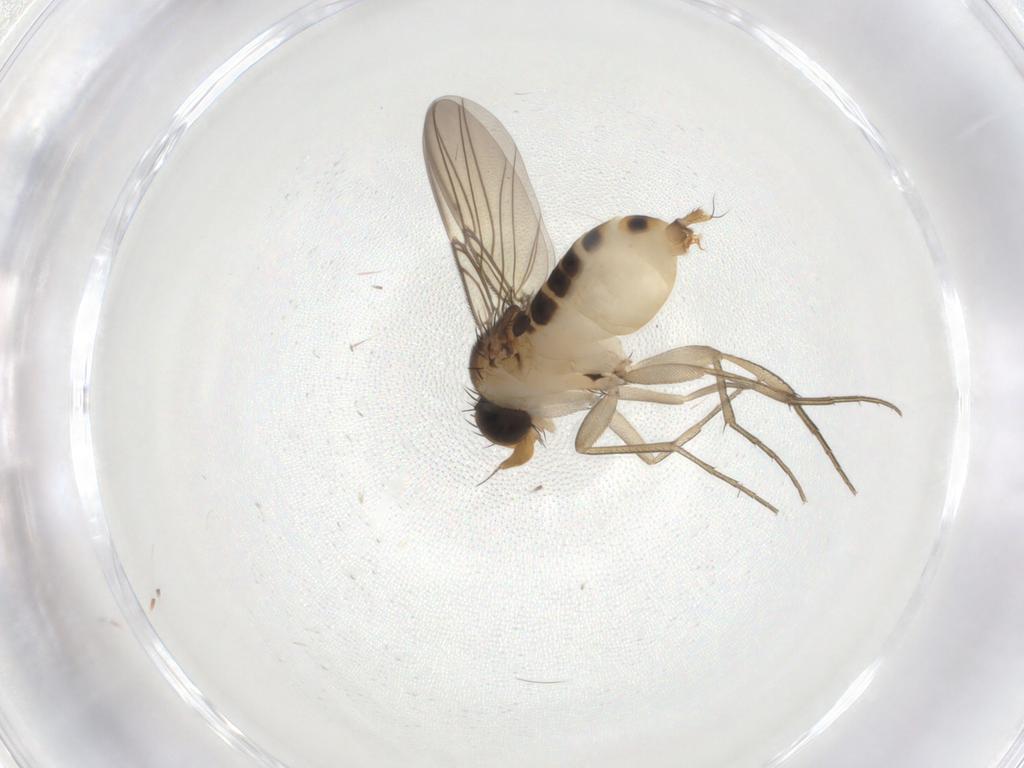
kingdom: Animalia
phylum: Arthropoda
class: Insecta
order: Diptera
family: Phoridae
